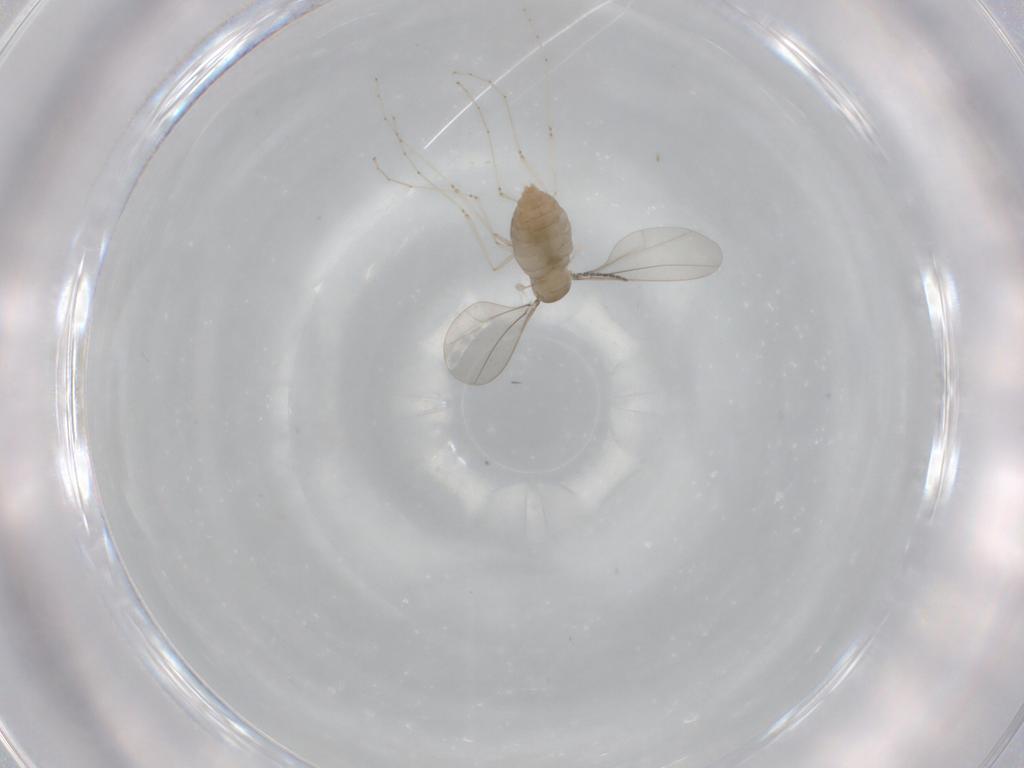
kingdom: Animalia
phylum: Arthropoda
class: Insecta
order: Diptera
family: Cecidomyiidae
